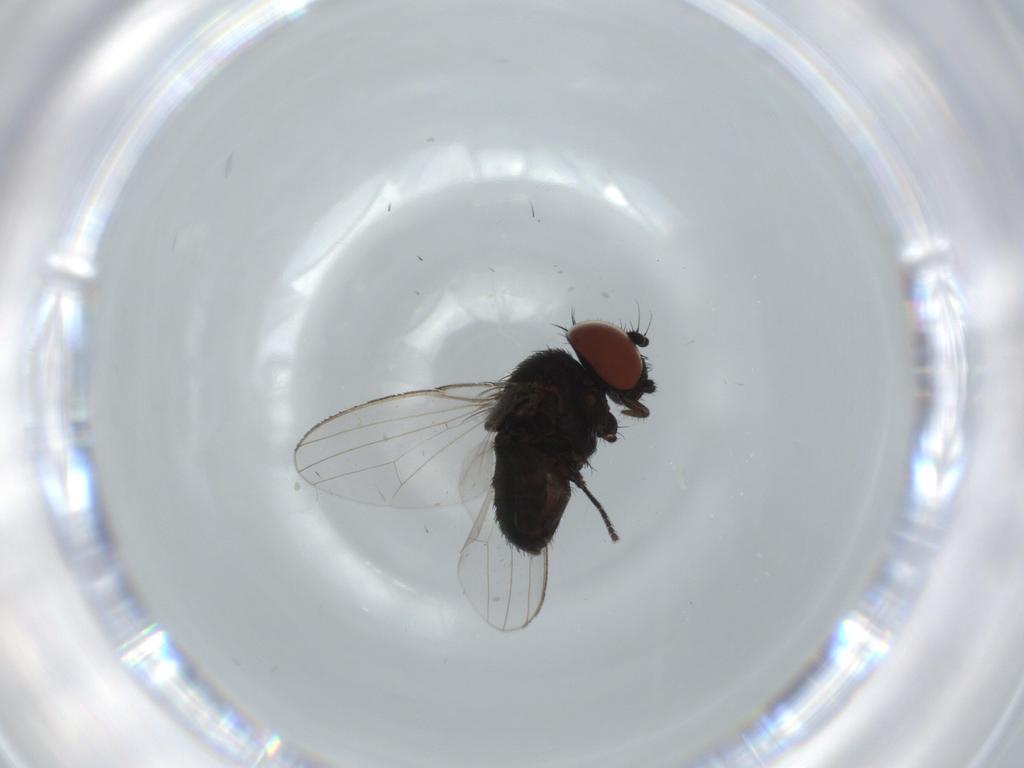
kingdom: Animalia
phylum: Arthropoda
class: Insecta
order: Diptera
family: Milichiidae
